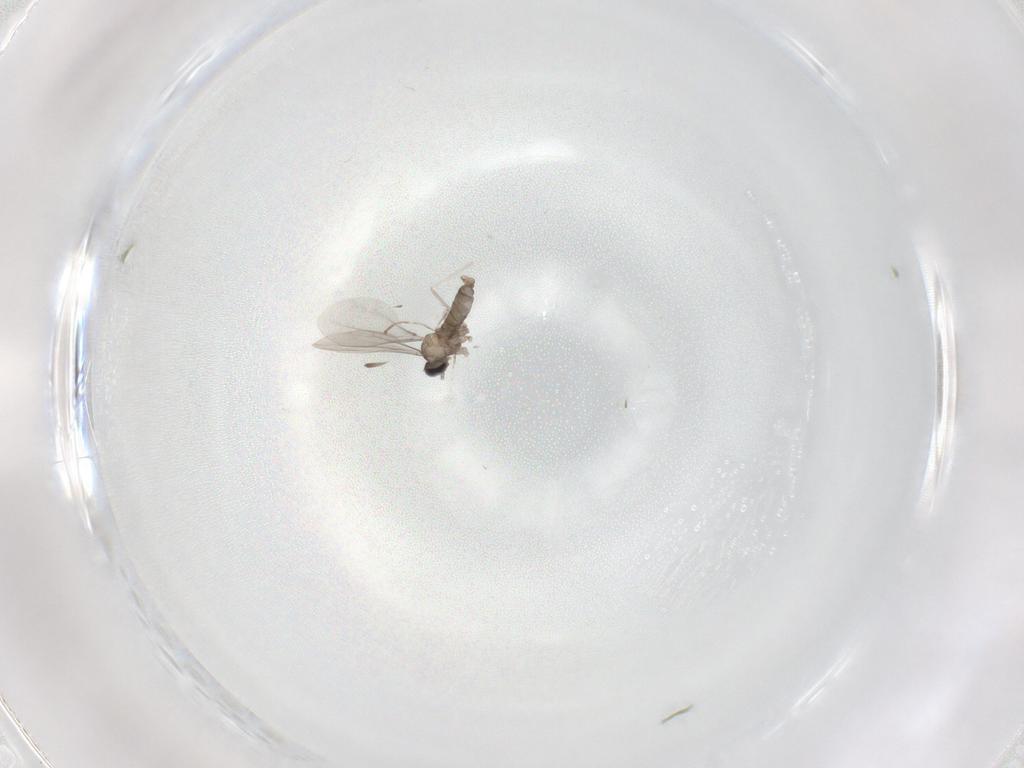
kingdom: Animalia
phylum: Arthropoda
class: Insecta
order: Diptera
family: Cecidomyiidae
